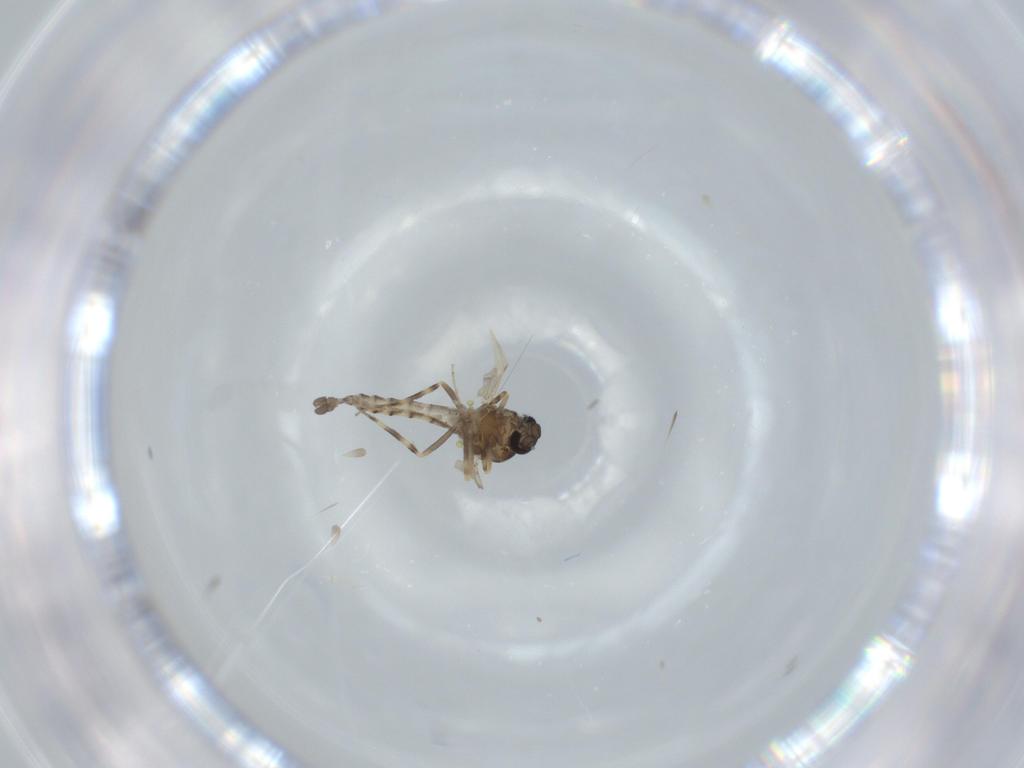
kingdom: Animalia
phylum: Arthropoda
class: Insecta
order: Diptera
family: Ceratopogonidae
